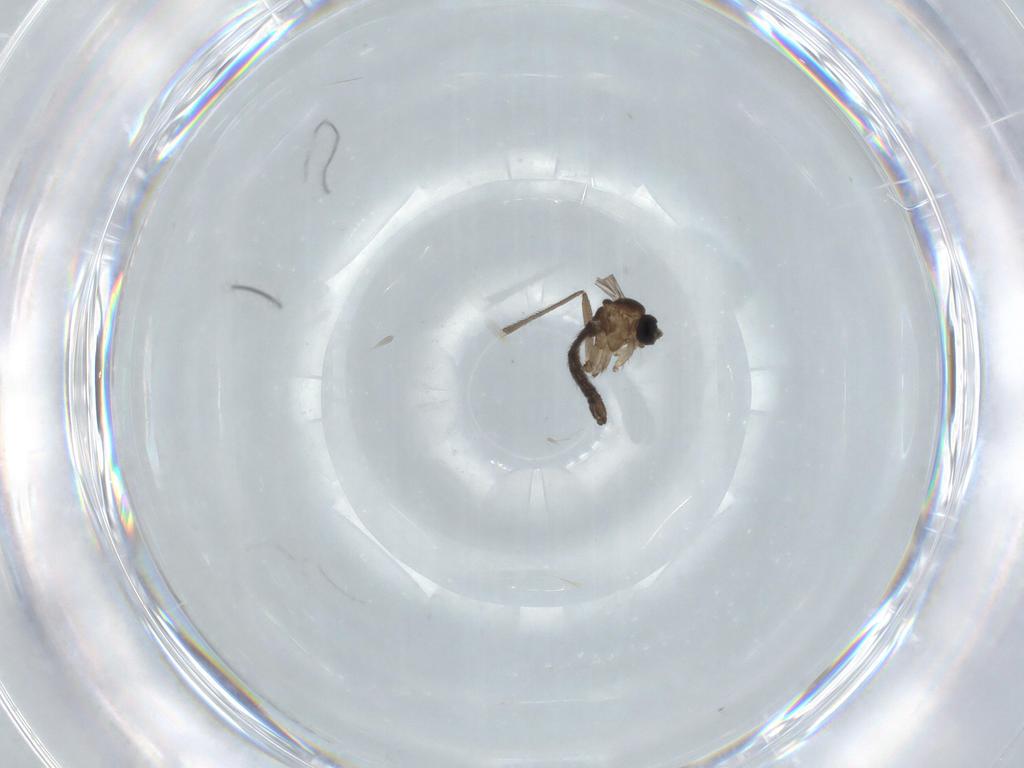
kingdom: Animalia
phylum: Arthropoda
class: Insecta
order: Diptera
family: Sciaridae
